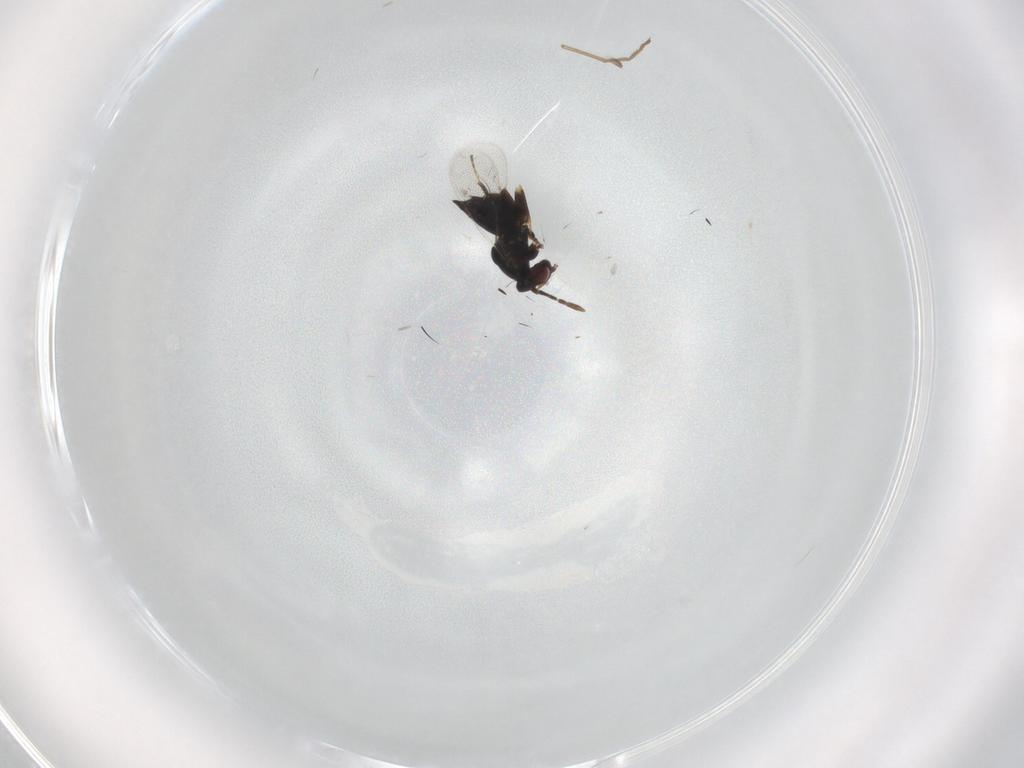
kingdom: Animalia
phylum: Arthropoda
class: Insecta
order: Hymenoptera
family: Eulophidae
